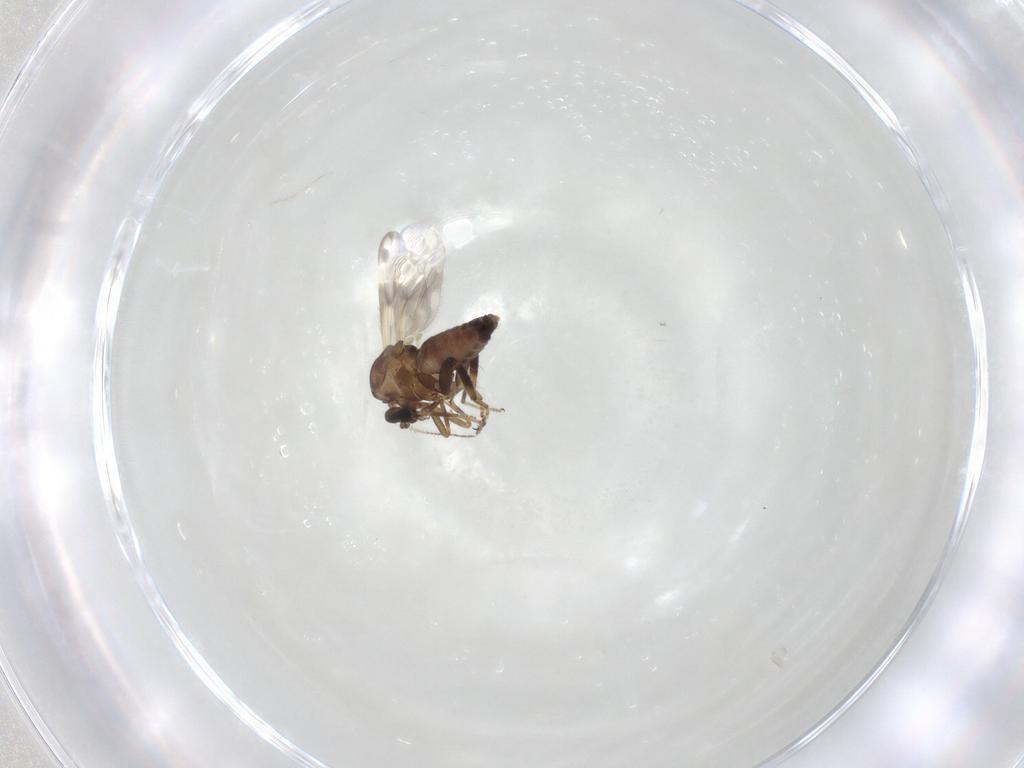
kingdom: Animalia
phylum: Arthropoda
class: Insecta
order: Diptera
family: Ceratopogonidae
